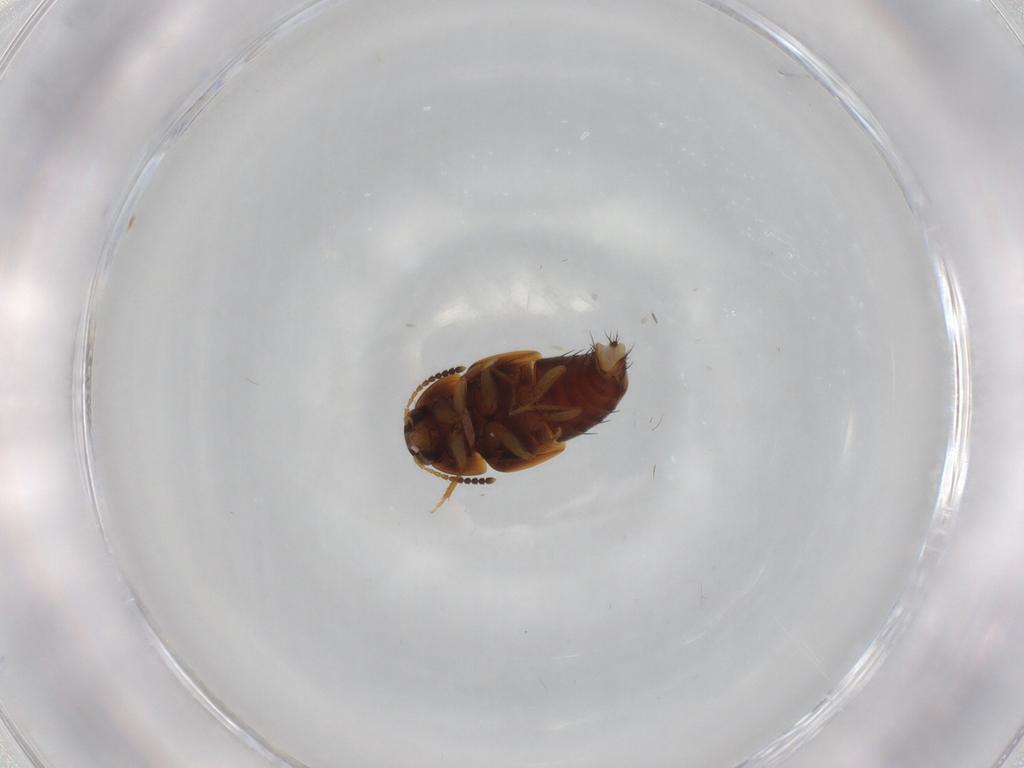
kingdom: Animalia
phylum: Arthropoda
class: Insecta
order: Coleoptera
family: Staphylinidae
